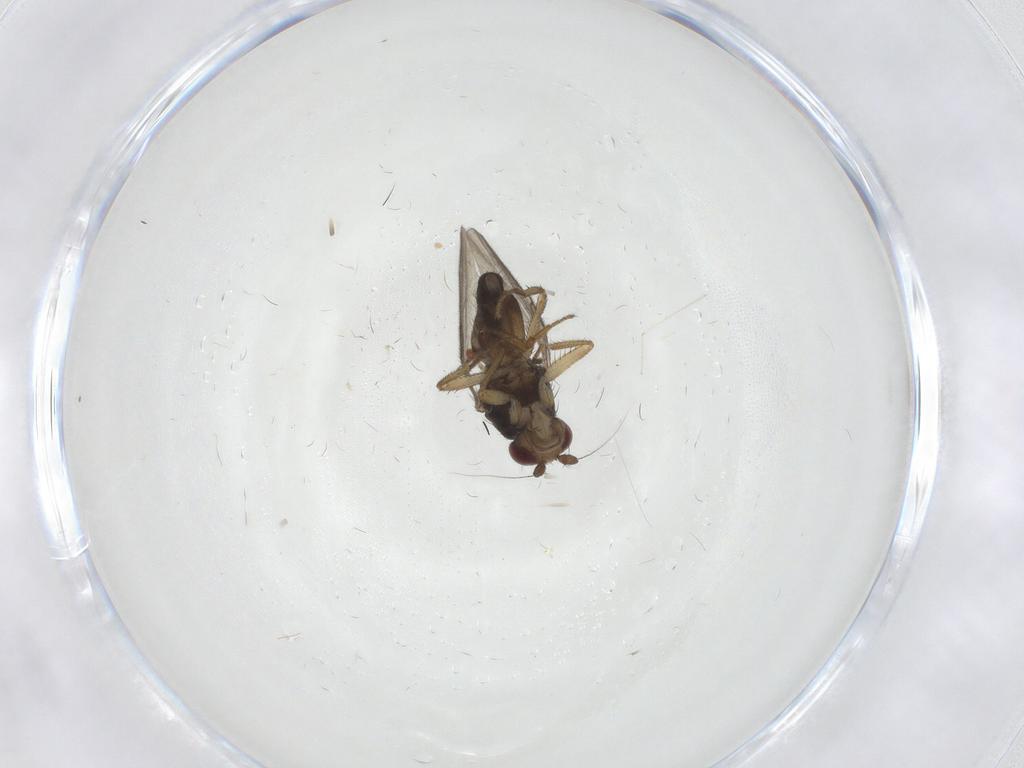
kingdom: Animalia
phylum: Arthropoda
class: Insecta
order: Diptera
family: Sphaeroceridae
